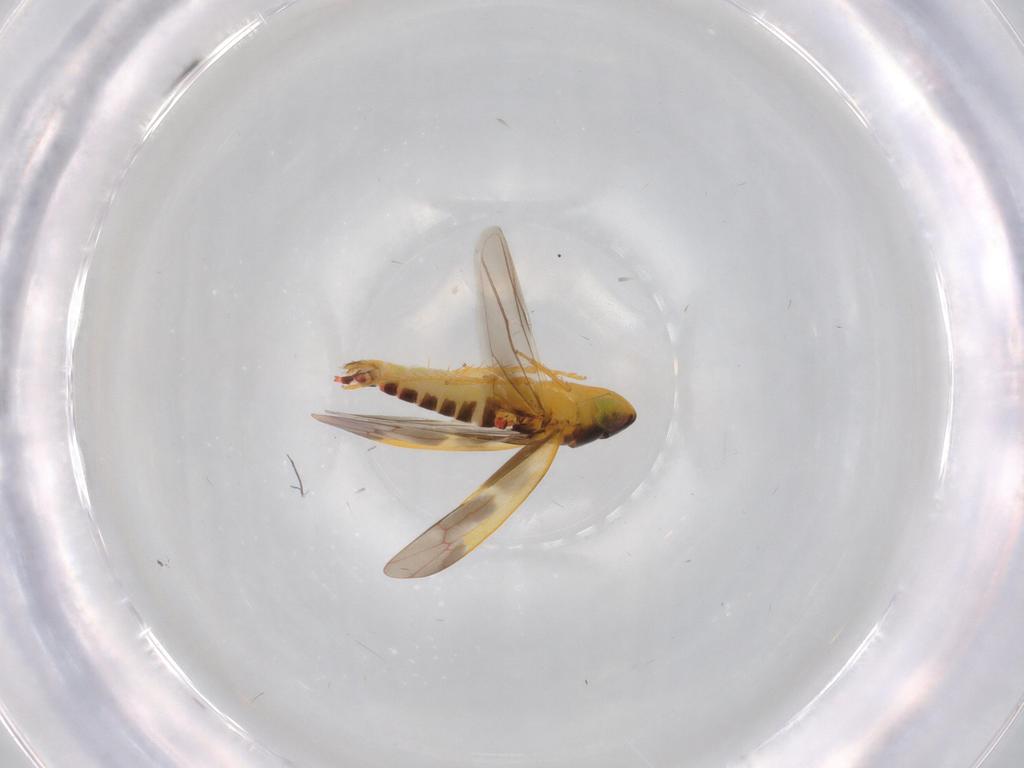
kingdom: Animalia
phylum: Arthropoda
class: Insecta
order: Hemiptera
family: Cicadellidae
